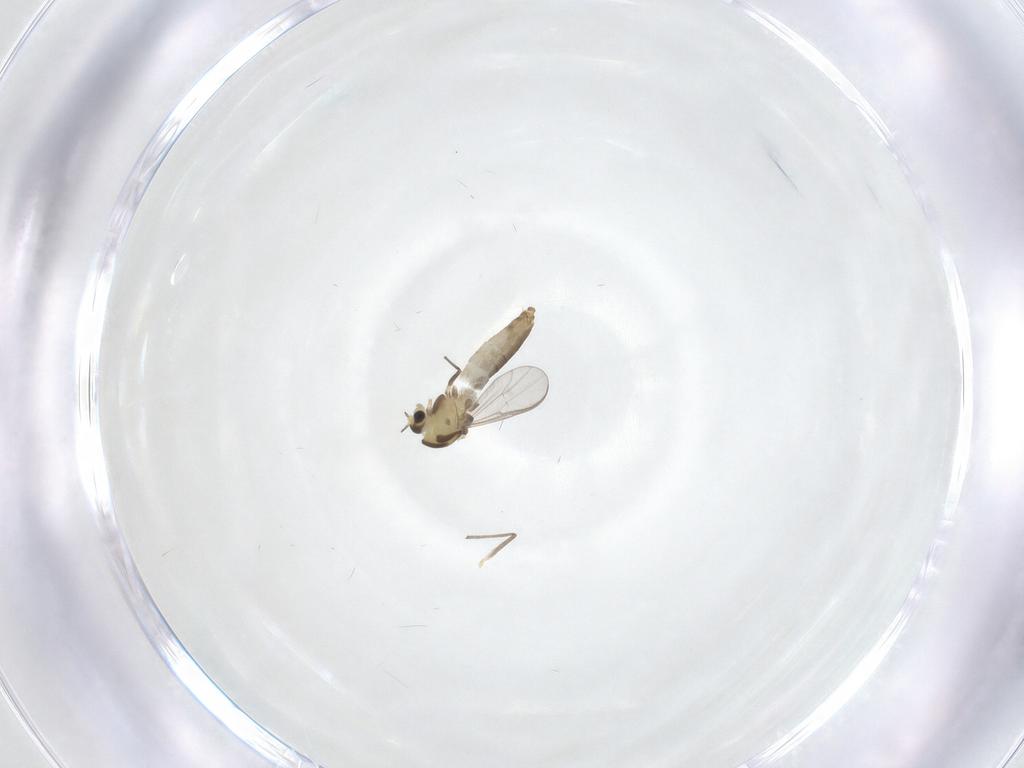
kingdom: Animalia
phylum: Arthropoda
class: Insecta
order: Diptera
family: Chironomidae
